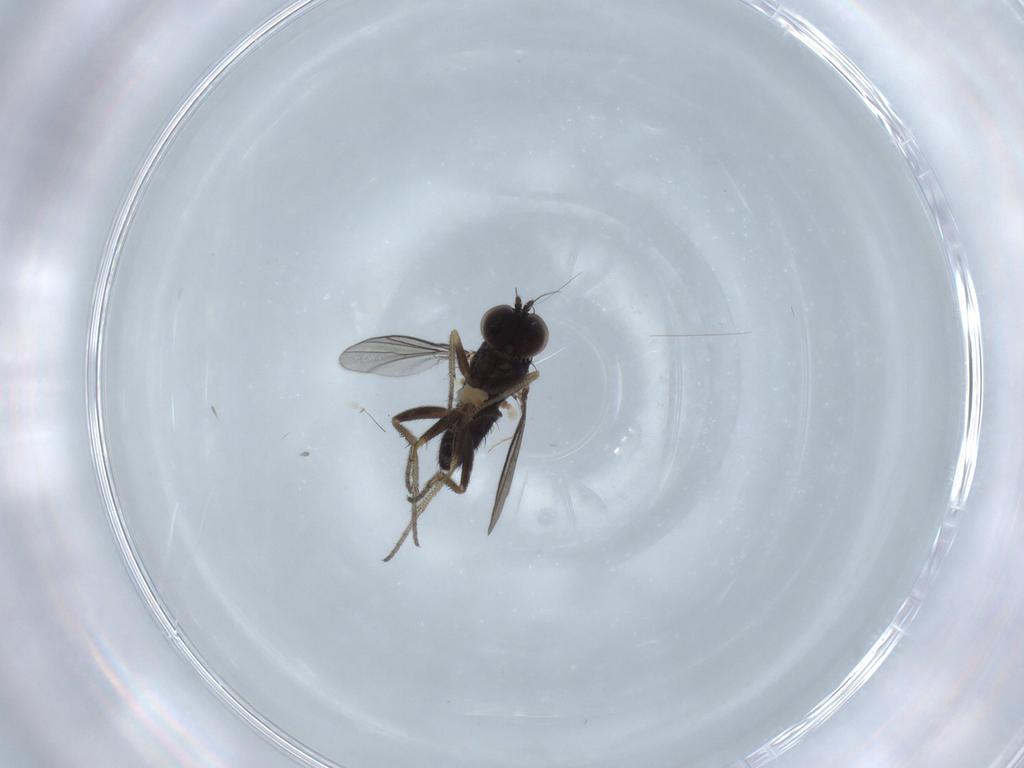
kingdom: Animalia
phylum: Arthropoda
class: Insecta
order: Diptera
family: Dolichopodidae
